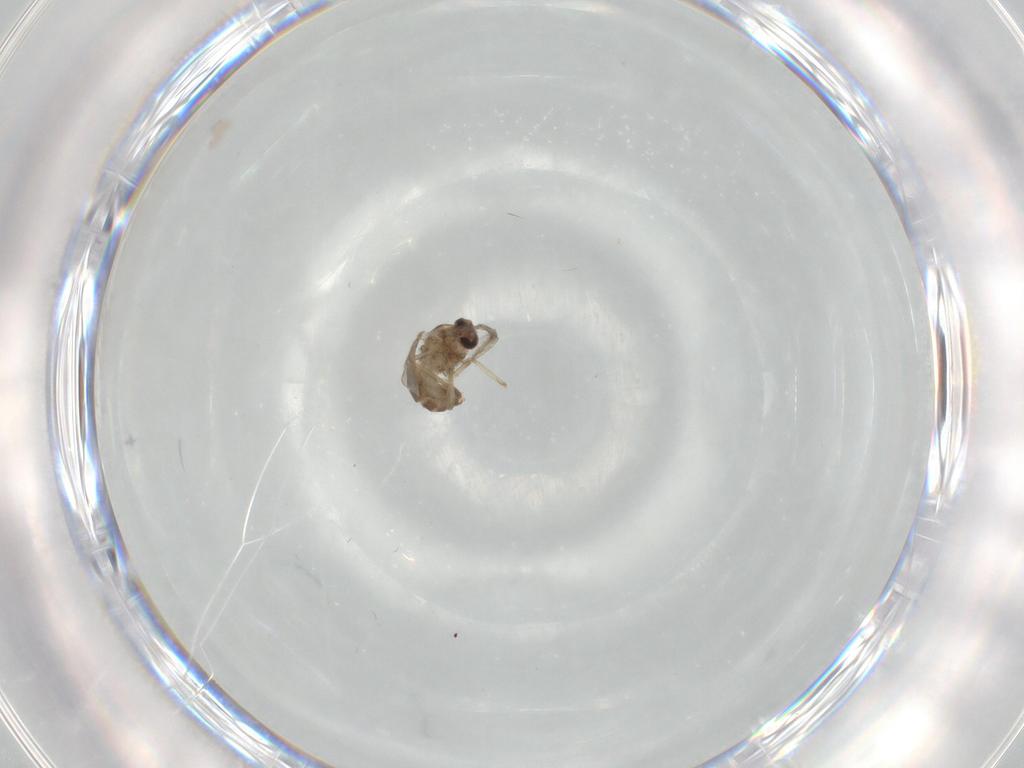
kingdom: Animalia
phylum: Arthropoda
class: Insecta
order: Diptera
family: Ceratopogonidae
